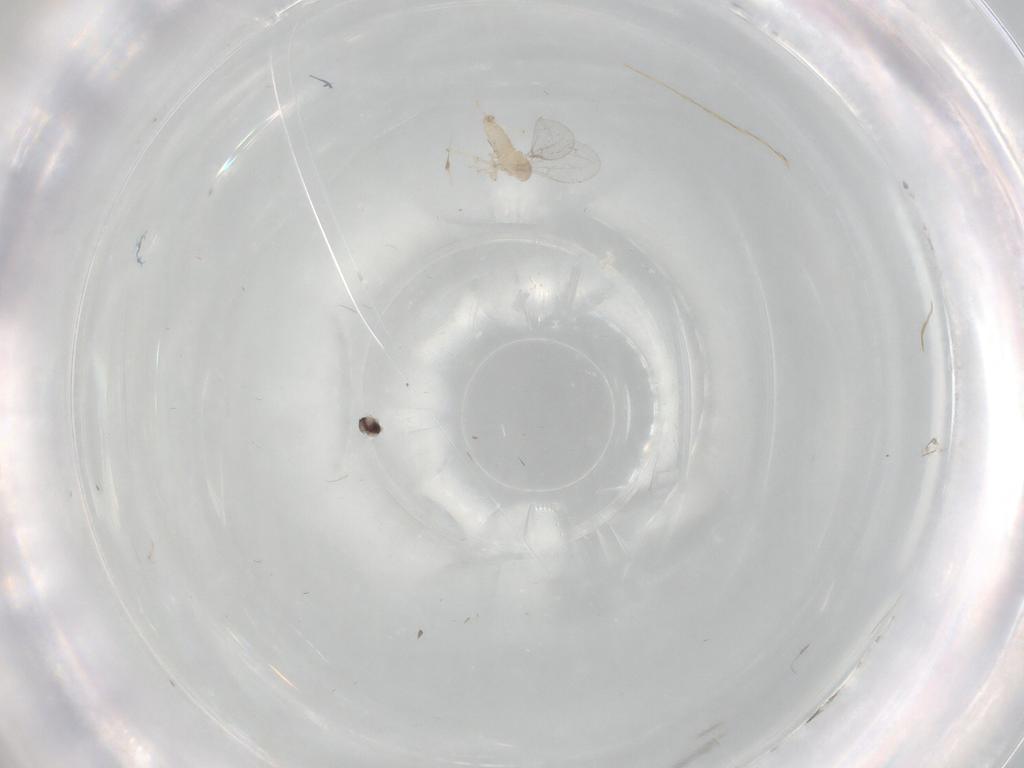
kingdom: Animalia
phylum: Arthropoda
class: Insecta
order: Diptera
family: Cecidomyiidae
